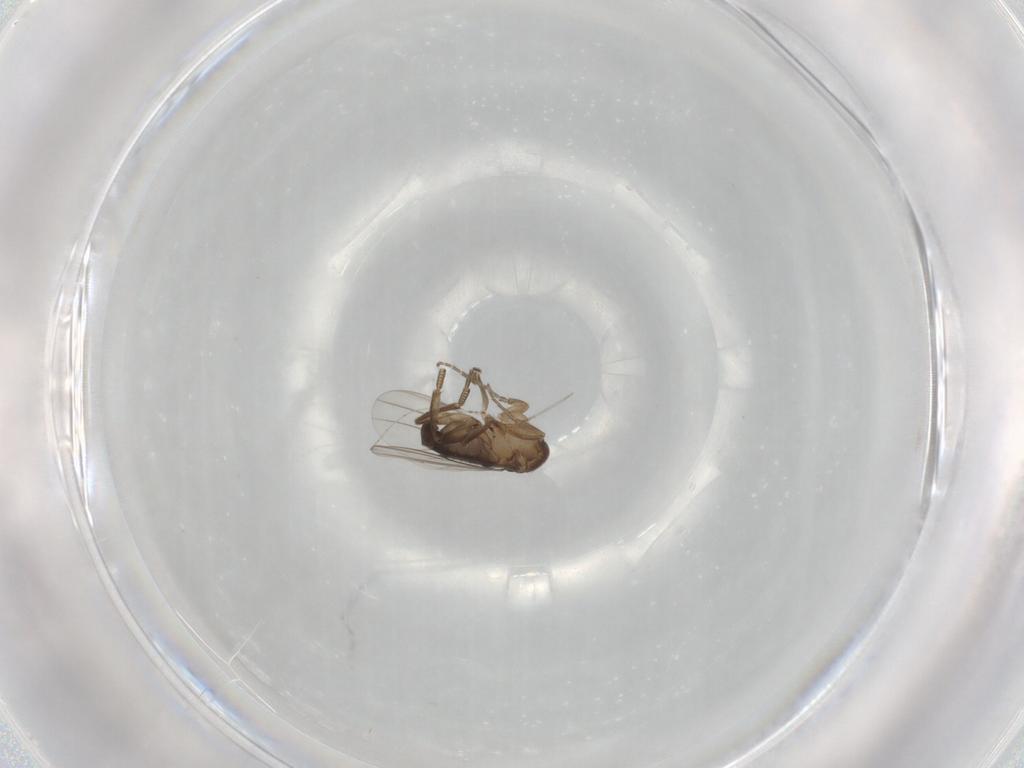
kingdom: Animalia
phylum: Arthropoda
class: Insecta
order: Diptera
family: Phoridae
